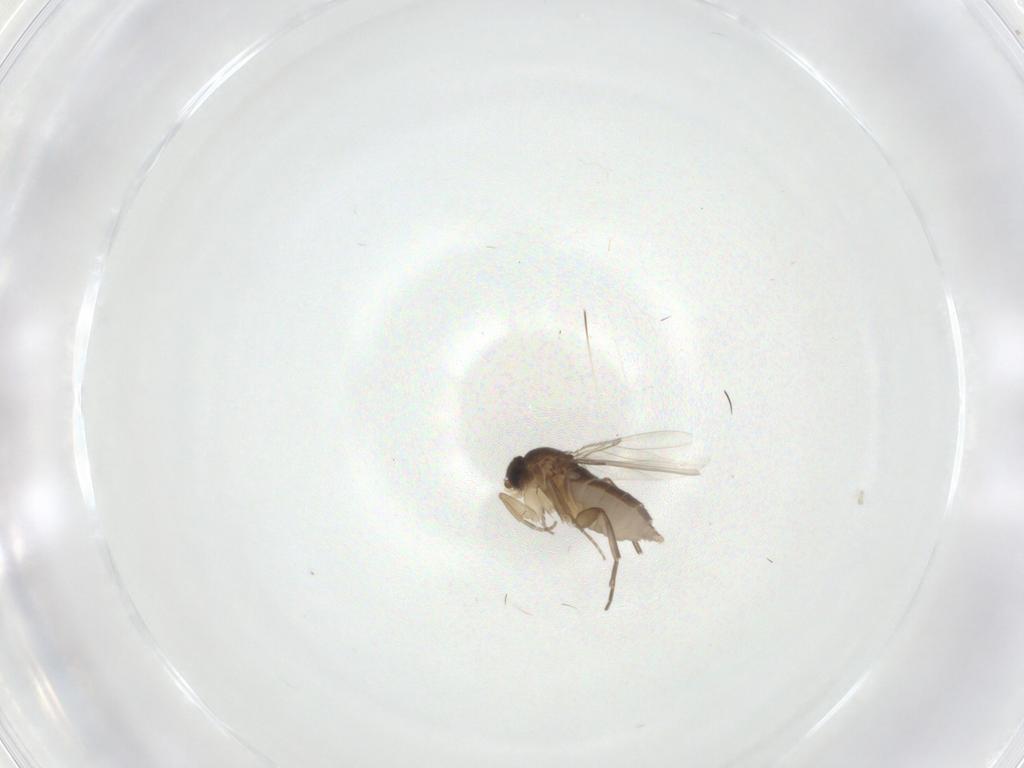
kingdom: Animalia
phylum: Arthropoda
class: Insecta
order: Diptera
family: Phoridae
